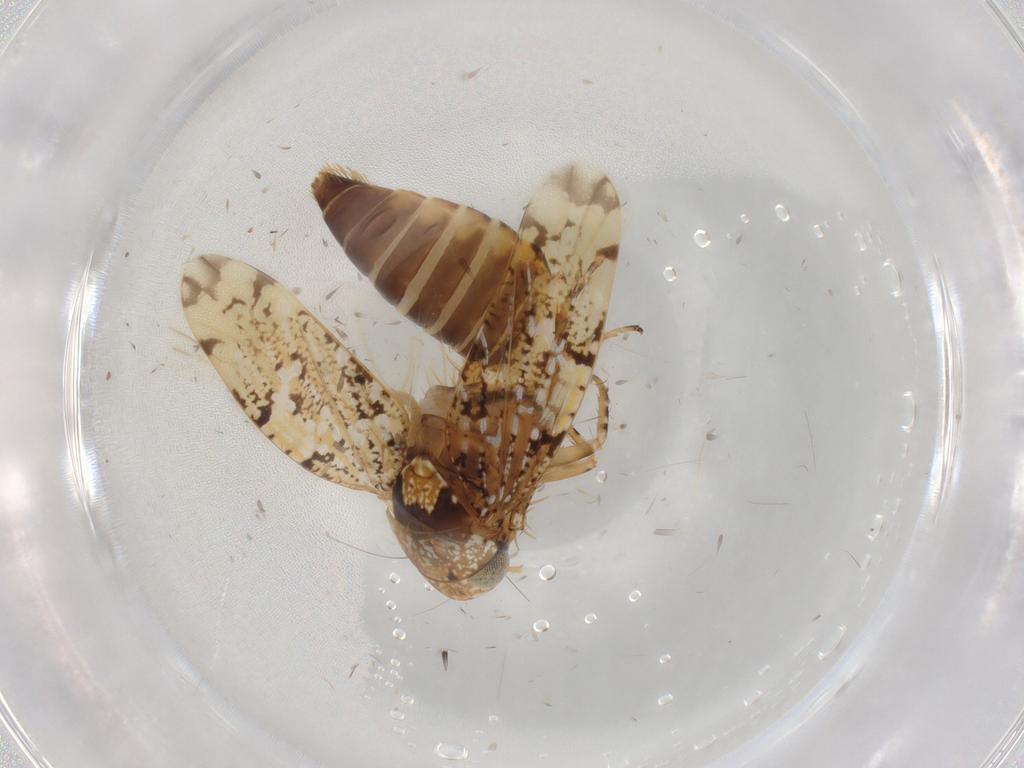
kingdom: Animalia
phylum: Arthropoda
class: Insecta
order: Hemiptera
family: Cicadellidae
